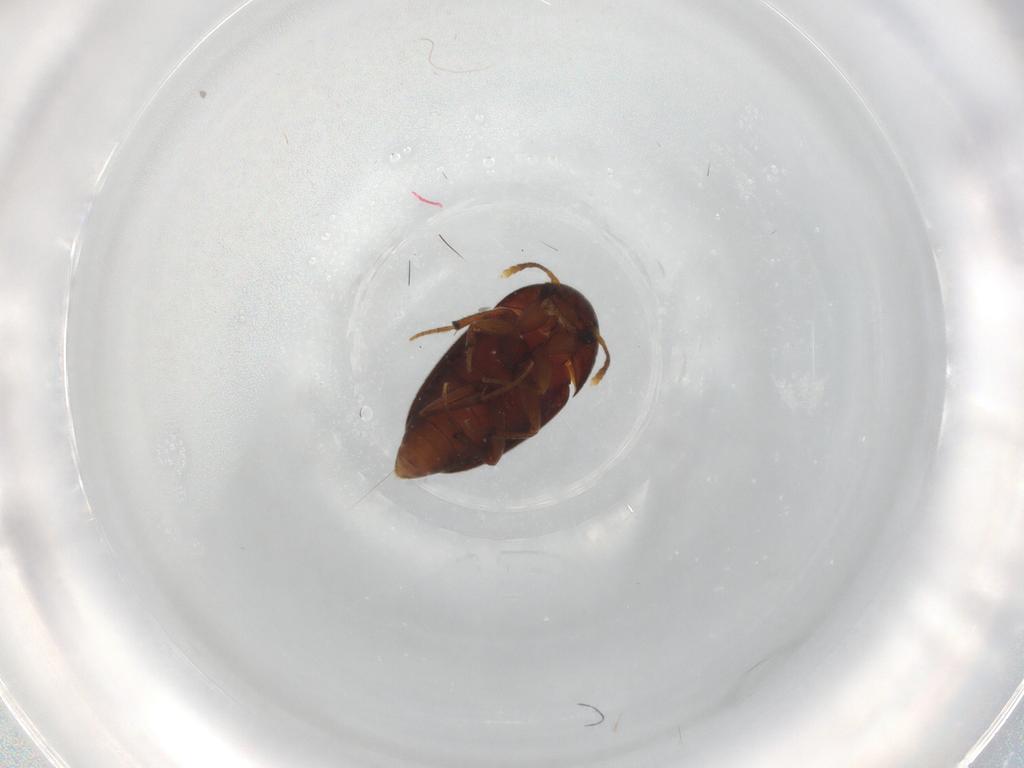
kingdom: Animalia
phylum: Arthropoda
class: Insecta
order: Coleoptera
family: Leiodidae
